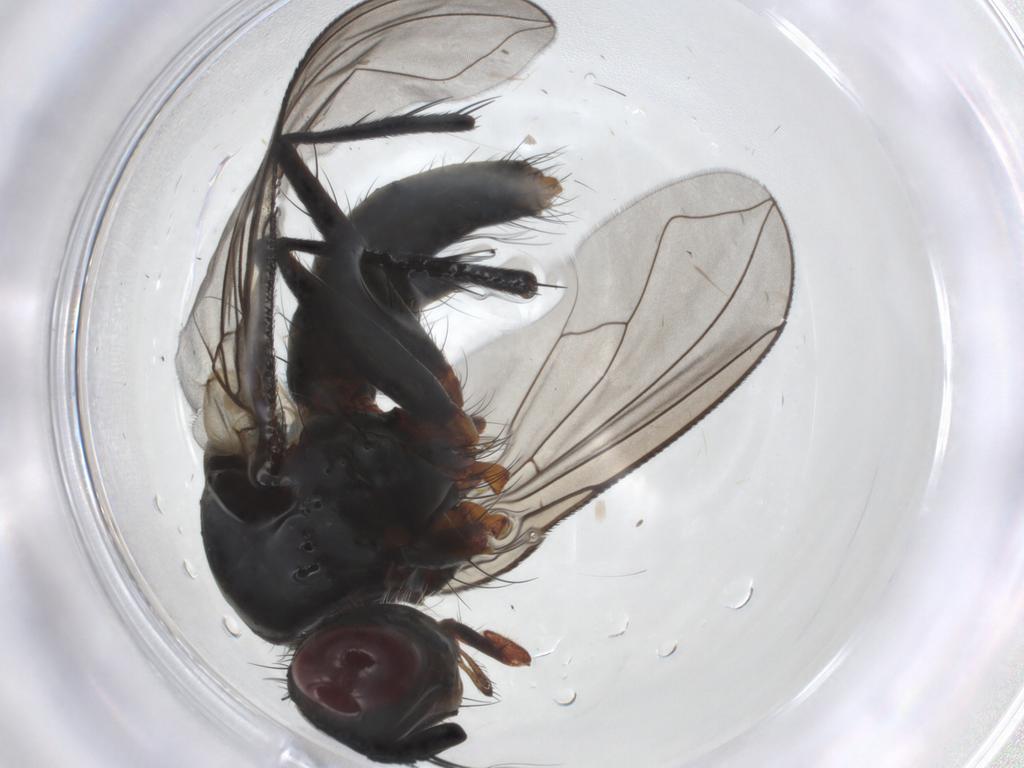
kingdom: Animalia
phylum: Arthropoda
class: Insecta
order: Diptera
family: Tachinidae
